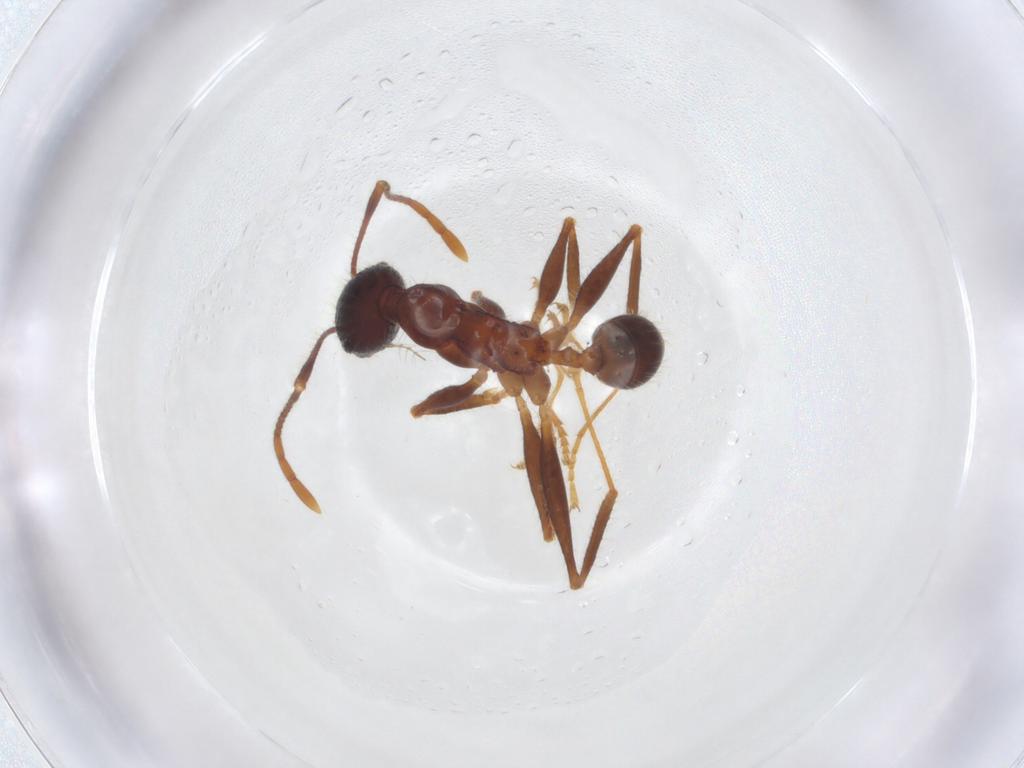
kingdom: Animalia
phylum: Arthropoda
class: Insecta
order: Hymenoptera
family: Formicidae
